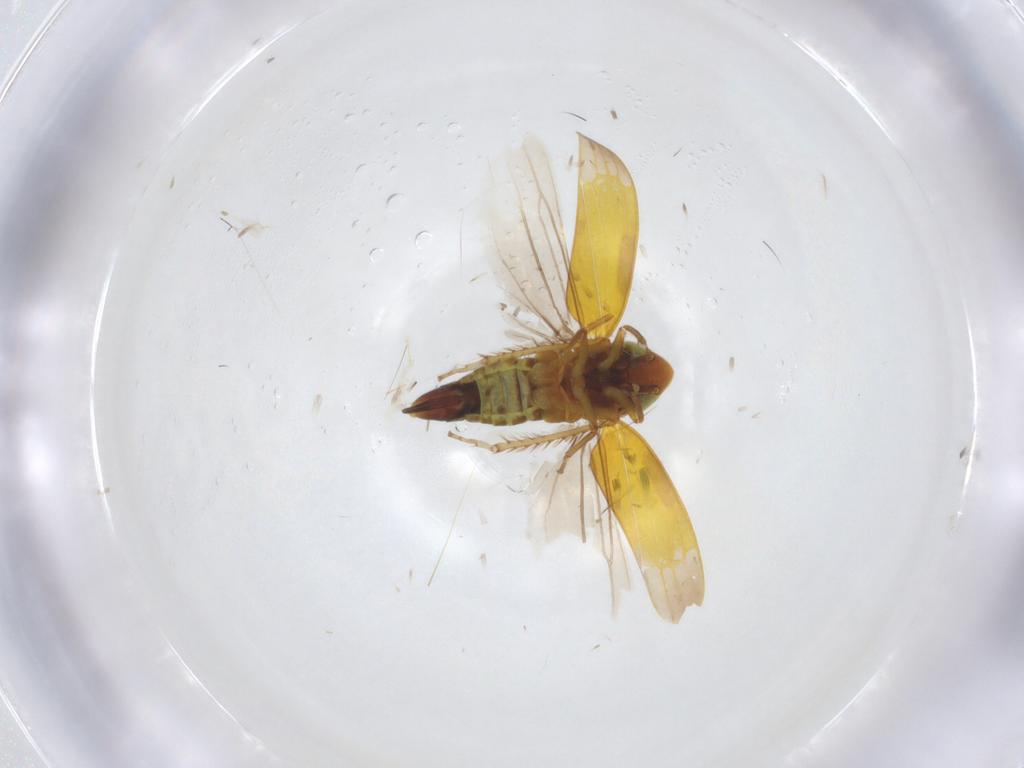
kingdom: Animalia
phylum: Arthropoda
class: Insecta
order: Hemiptera
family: Cicadellidae
